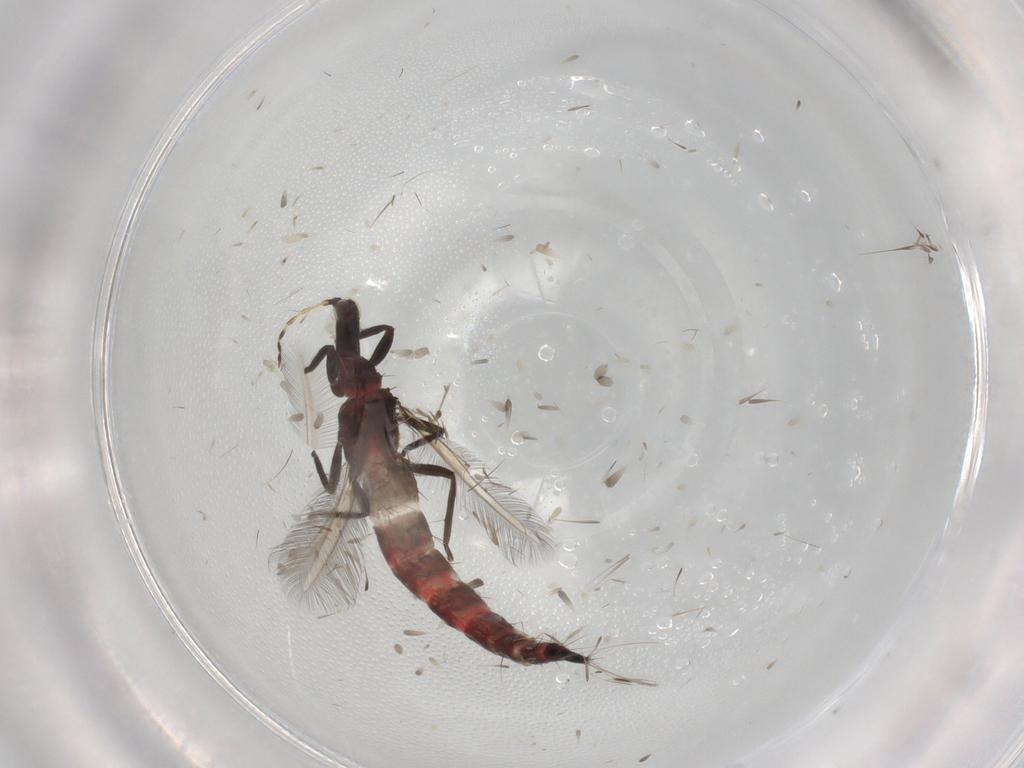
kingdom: Animalia
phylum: Arthropoda
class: Insecta
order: Thysanoptera
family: Phlaeothripidae
